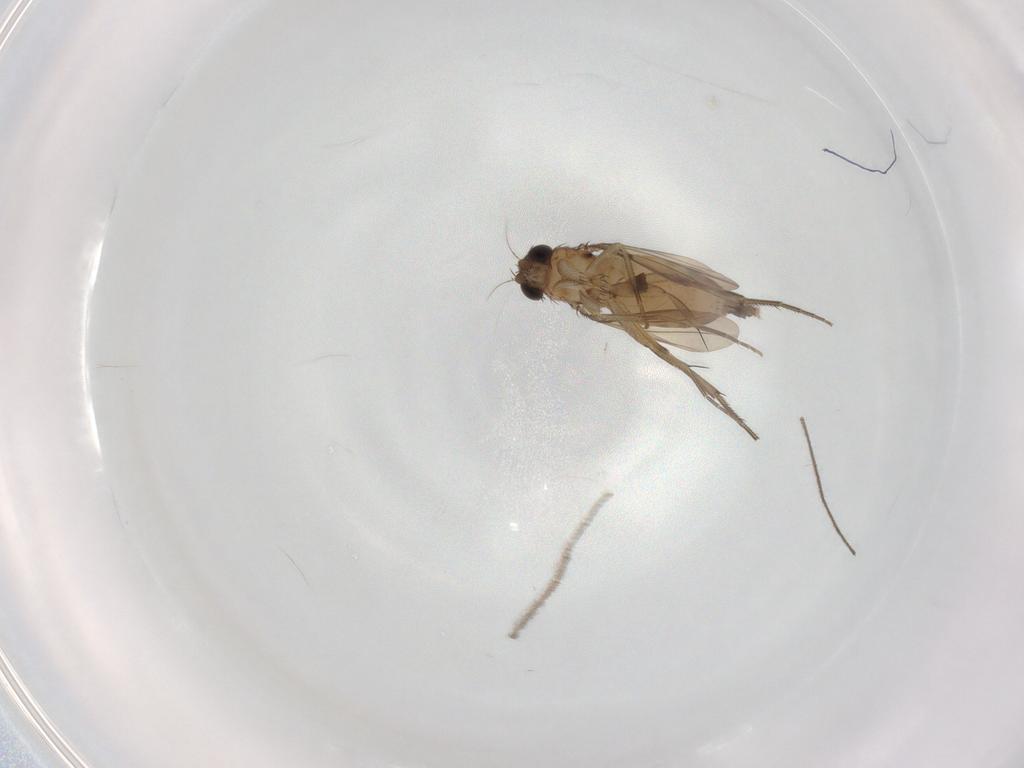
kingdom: Animalia
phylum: Arthropoda
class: Insecta
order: Diptera
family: Phoridae
